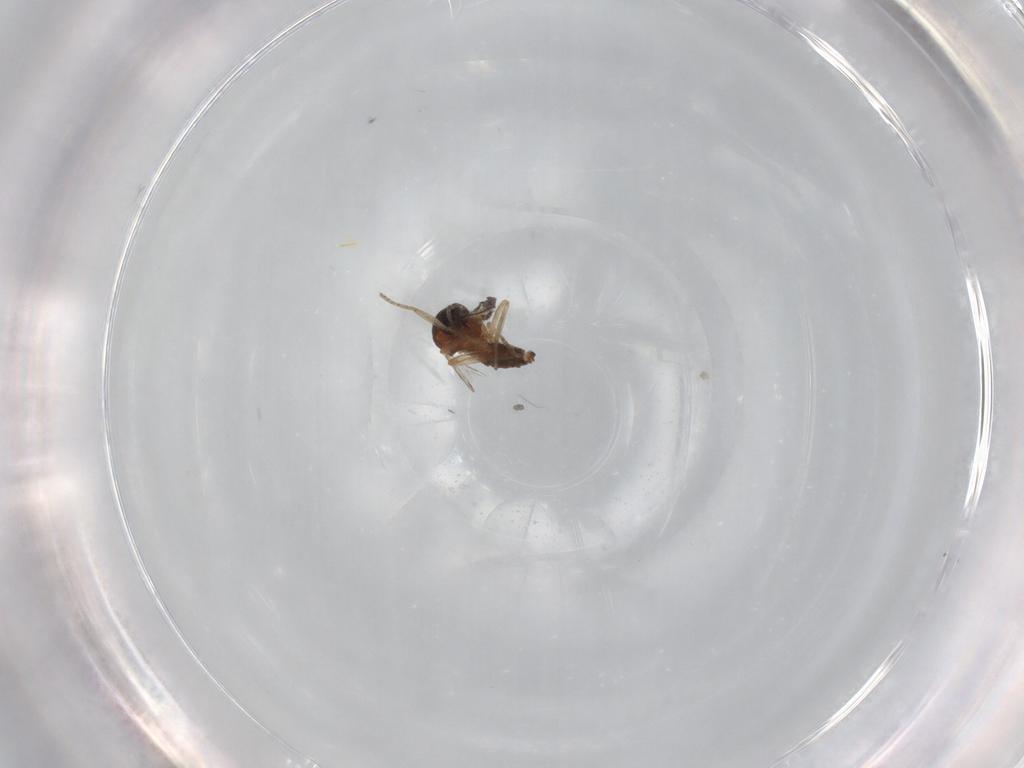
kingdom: Animalia
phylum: Arthropoda
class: Insecta
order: Diptera
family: Ceratopogonidae
